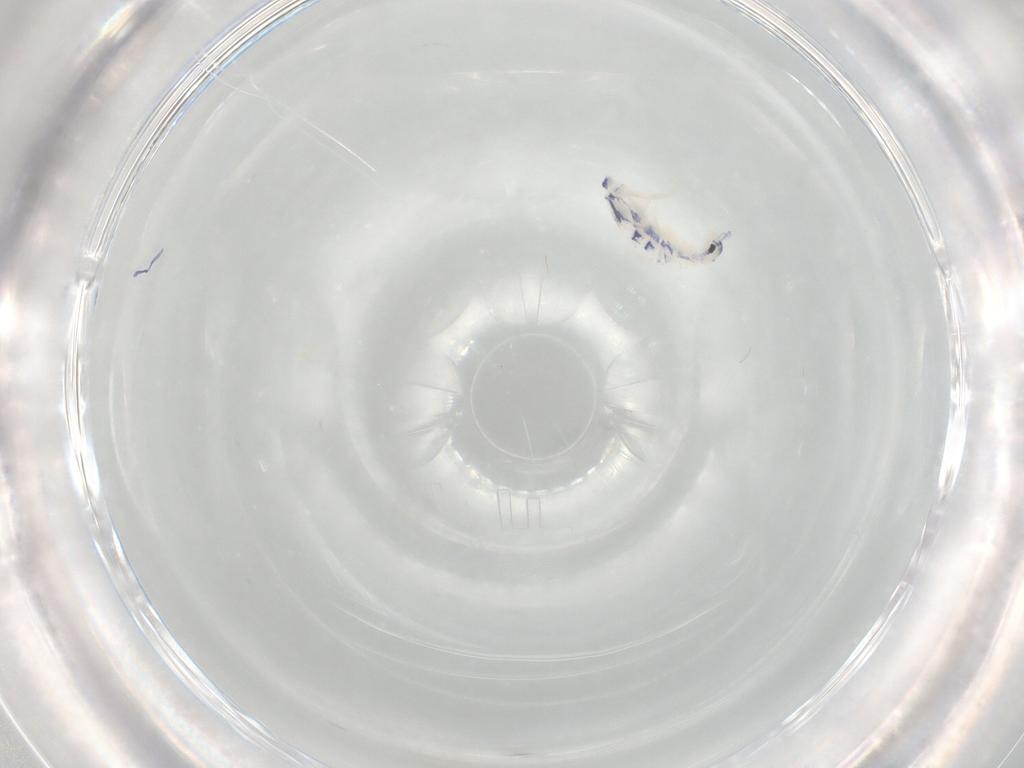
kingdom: Animalia
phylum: Arthropoda
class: Collembola
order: Entomobryomorpha
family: Entomobryidae
